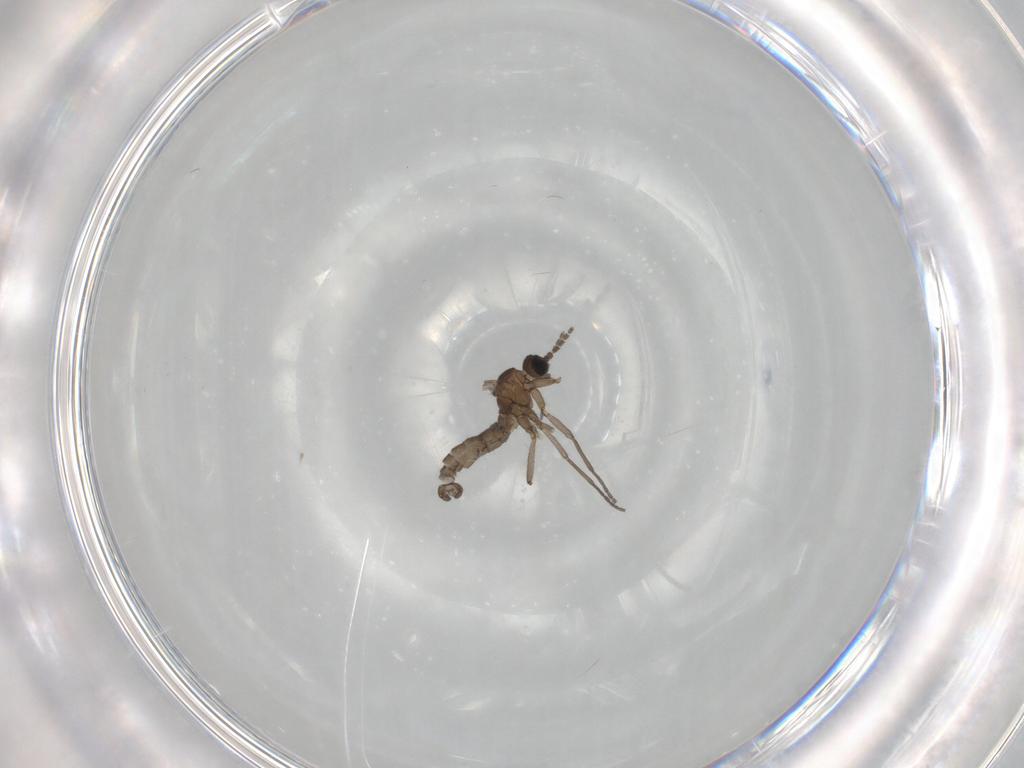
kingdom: Animalia
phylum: Arthropoda
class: Insecta
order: Diptera
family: Sciaridae
